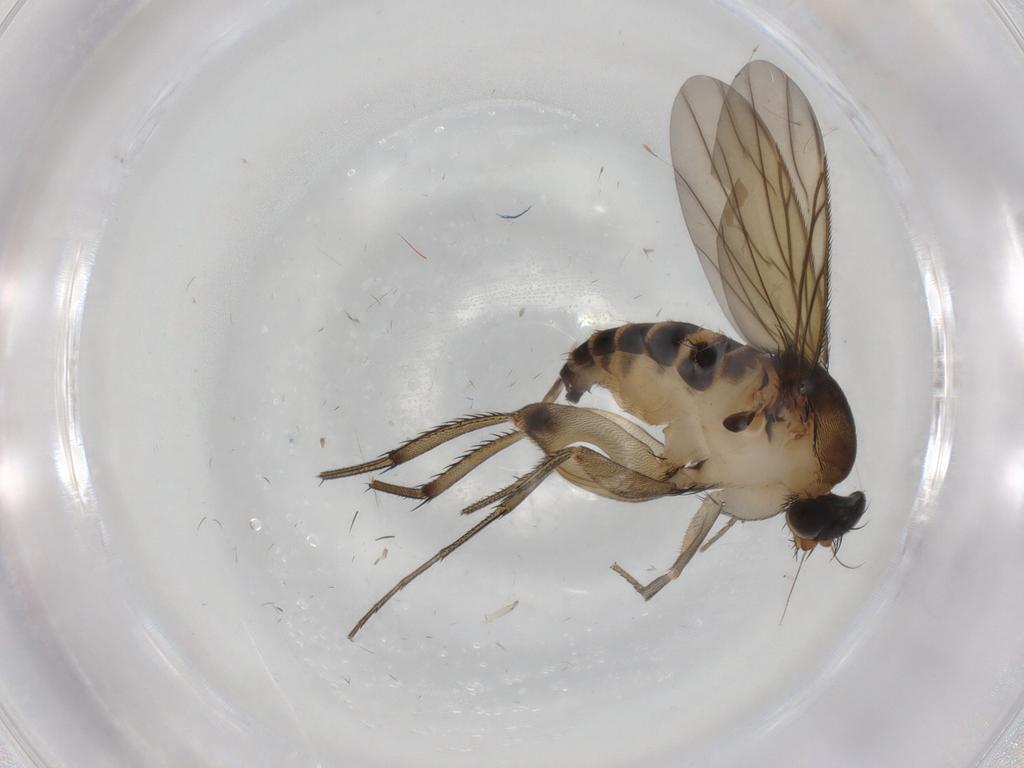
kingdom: Animalia
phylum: Arthropoda
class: Insecta
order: Diptera
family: Phoridae
